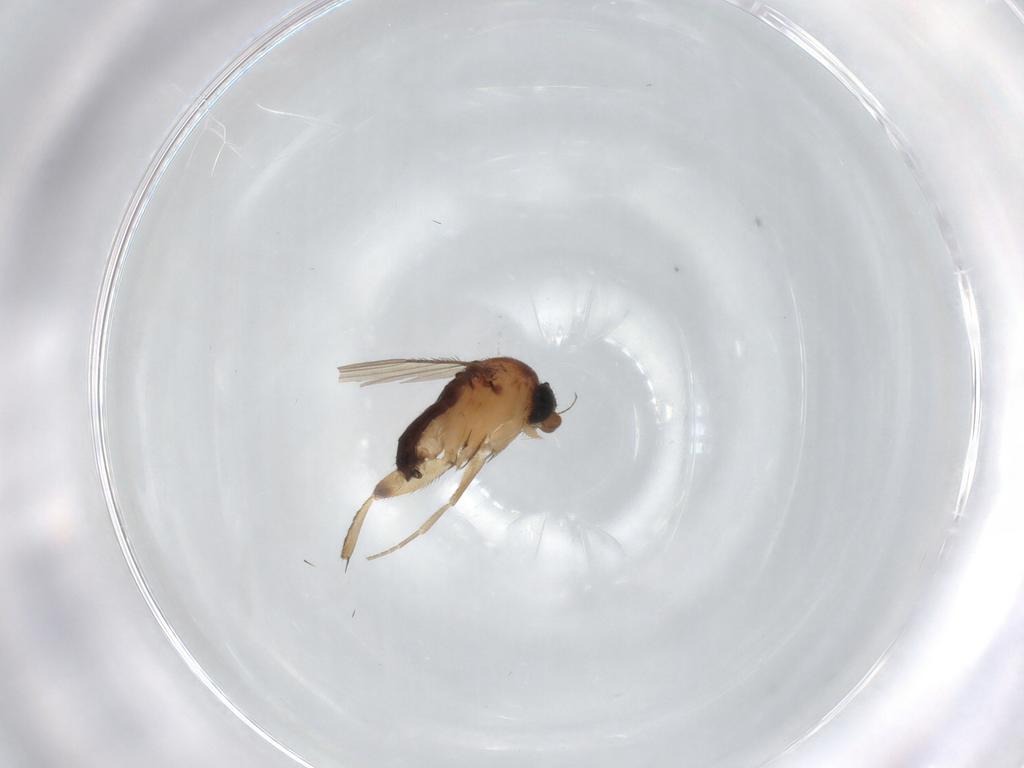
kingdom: Animalia
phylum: Arthropoda
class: Insecta
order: Diptera
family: Phoridae
